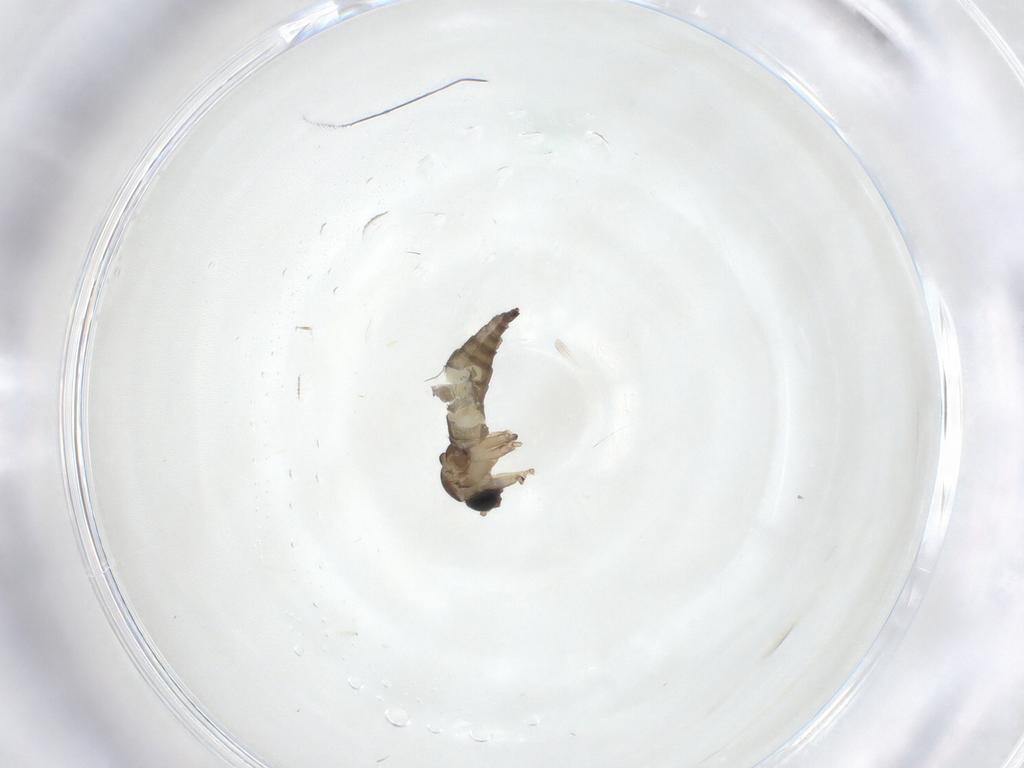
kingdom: Animalia
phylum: Arthropoda
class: Insecta
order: Diptera
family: Sciaridae
